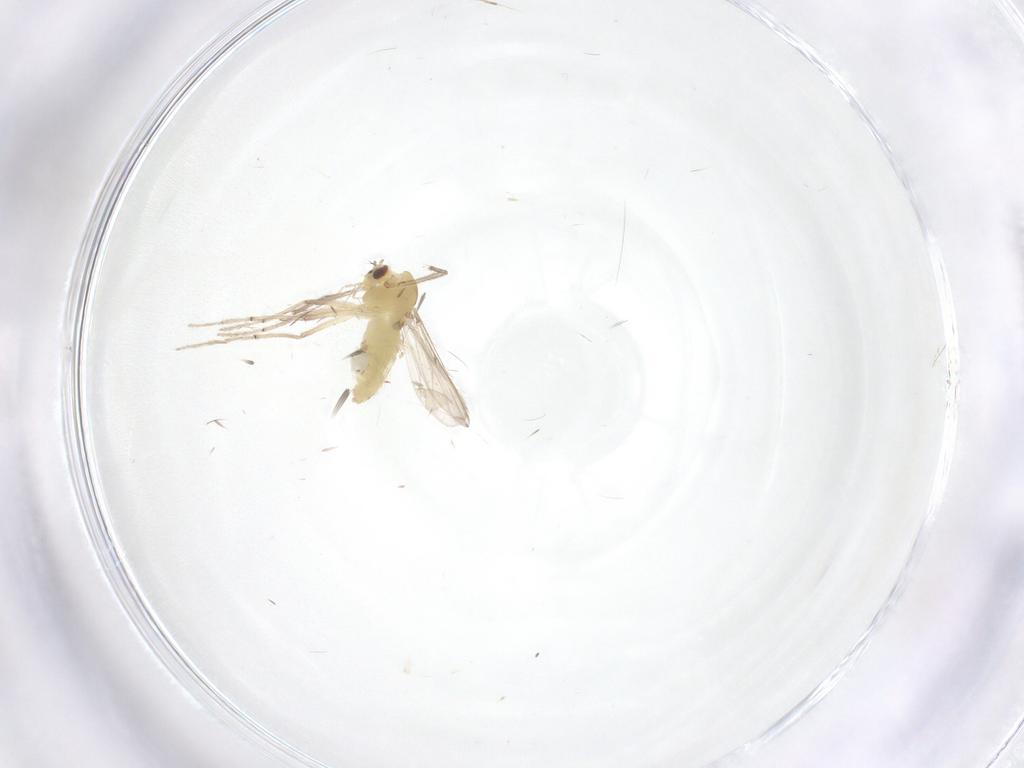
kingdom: Animalia
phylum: Arthropoda
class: Insecta
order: Diptera
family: Chironomidae
